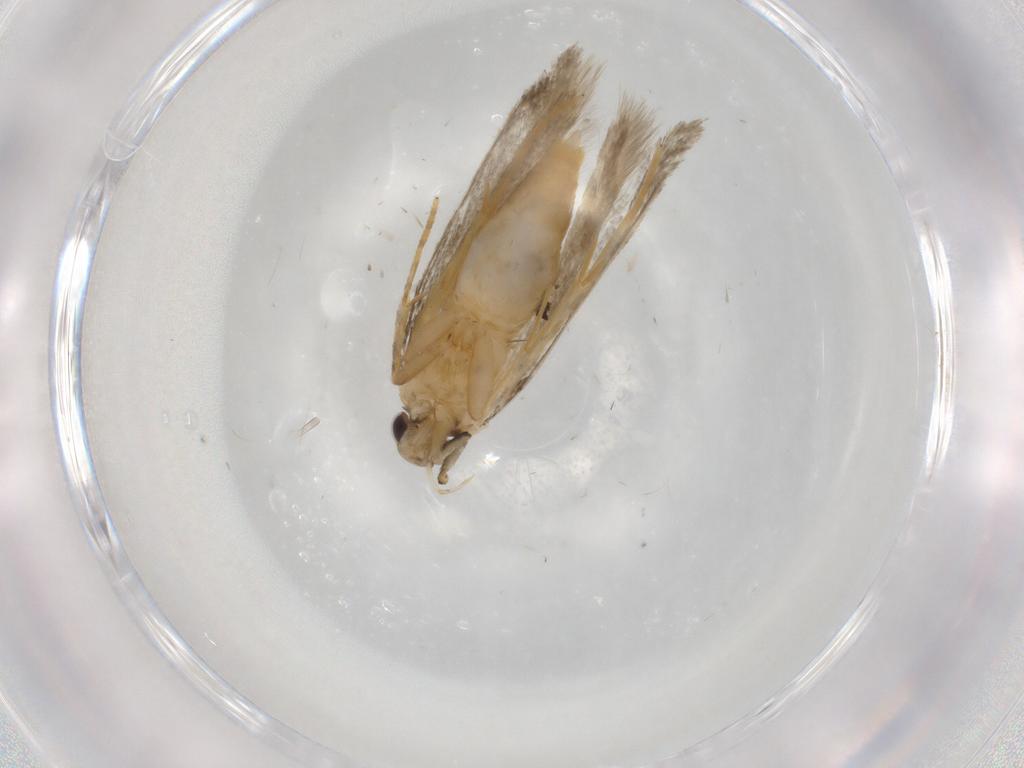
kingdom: Animalia
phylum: Arthropoda
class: Insecta
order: Lepidoptera
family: Autostichidae
